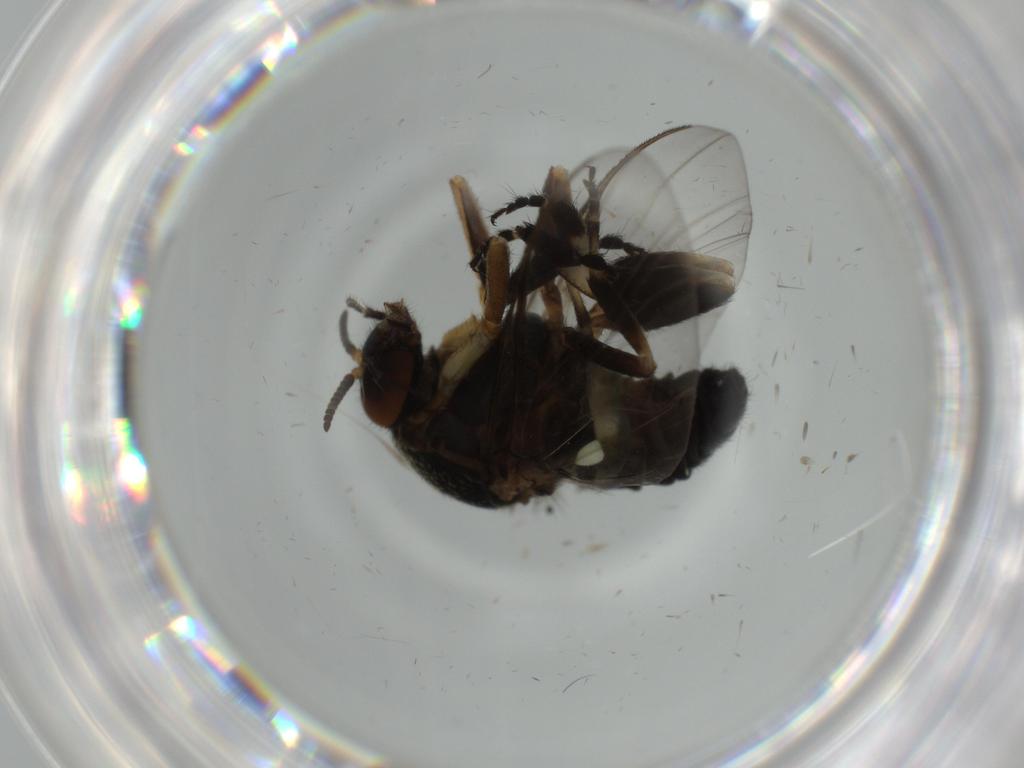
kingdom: Animalia
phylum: Arthropoda
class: Insecta
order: Diptera
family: Sciaridae
